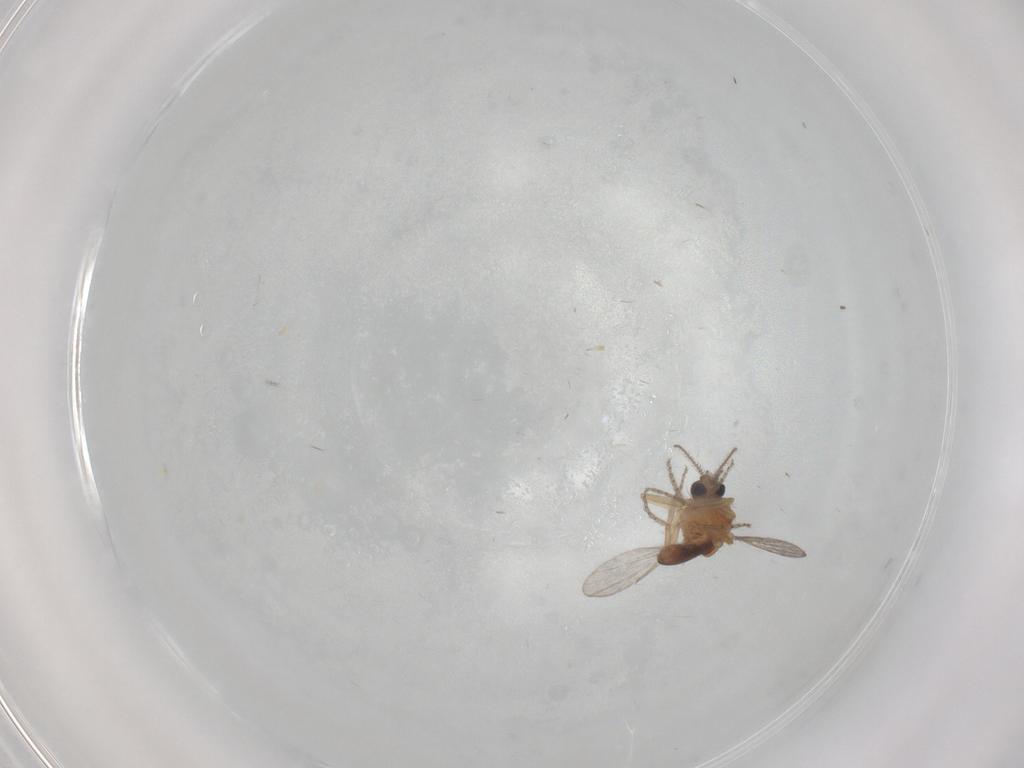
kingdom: Animalia
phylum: Arthropoda
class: Insecta
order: Diptera
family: Ceratopogonidae
